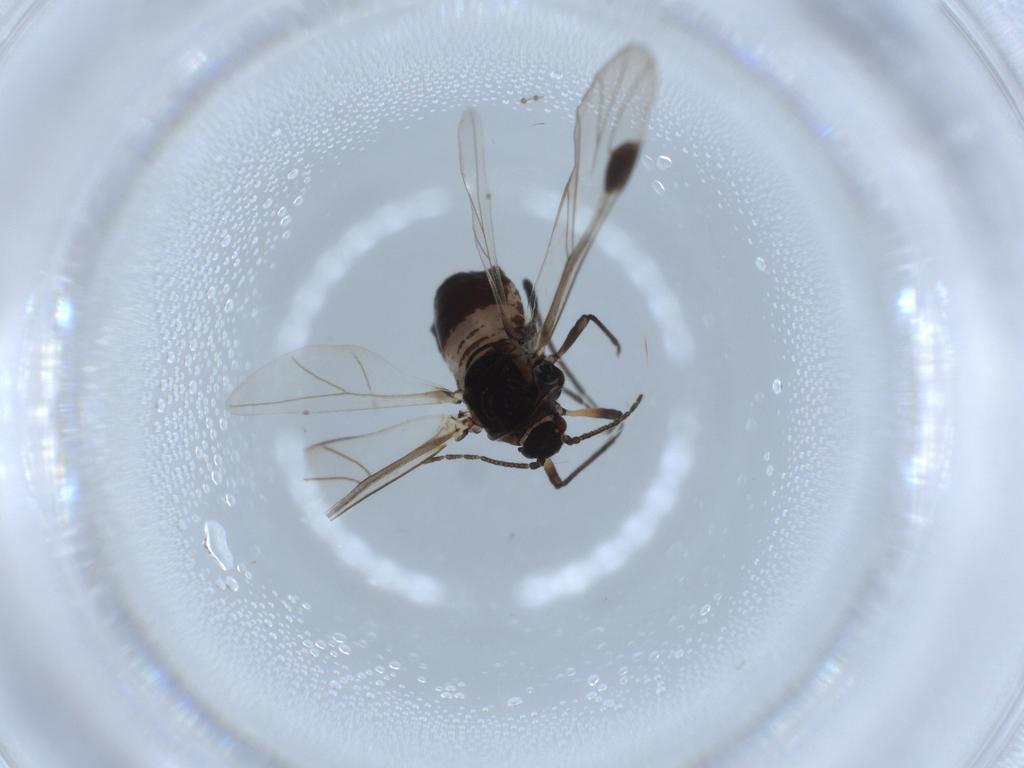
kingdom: Animalia
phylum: Arthropoda
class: Insecta
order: Hemiptera
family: Aphididae
